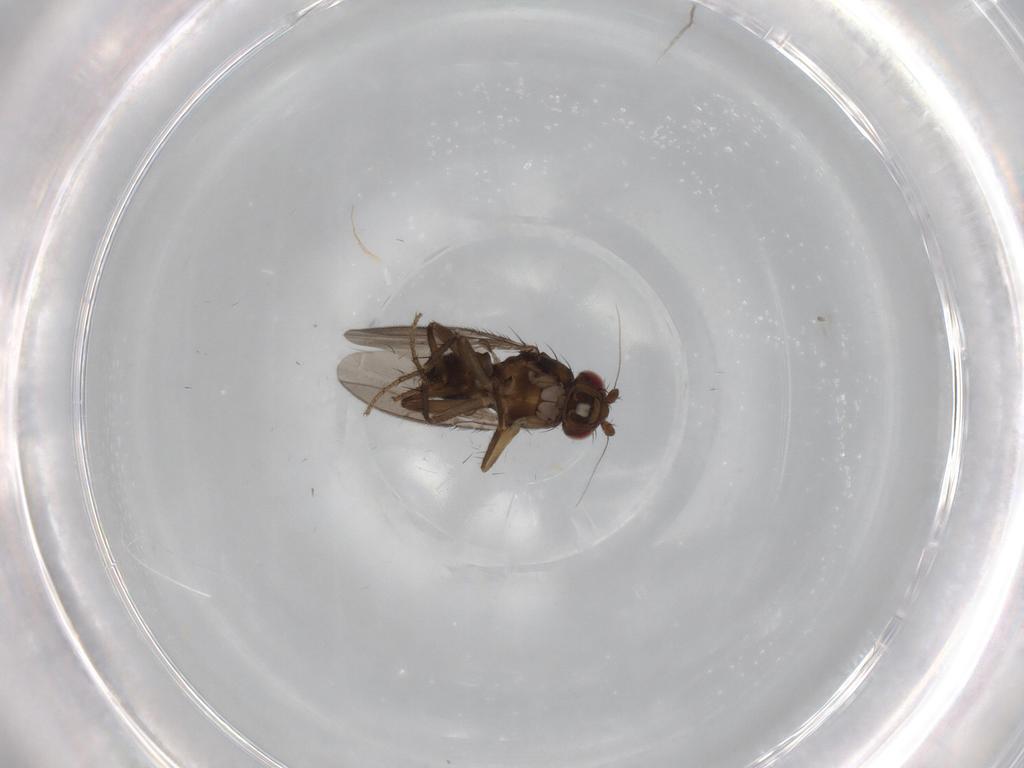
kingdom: Animalia
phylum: Arthropoda
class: Insecta
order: Diptera
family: Sphaeroceridae
